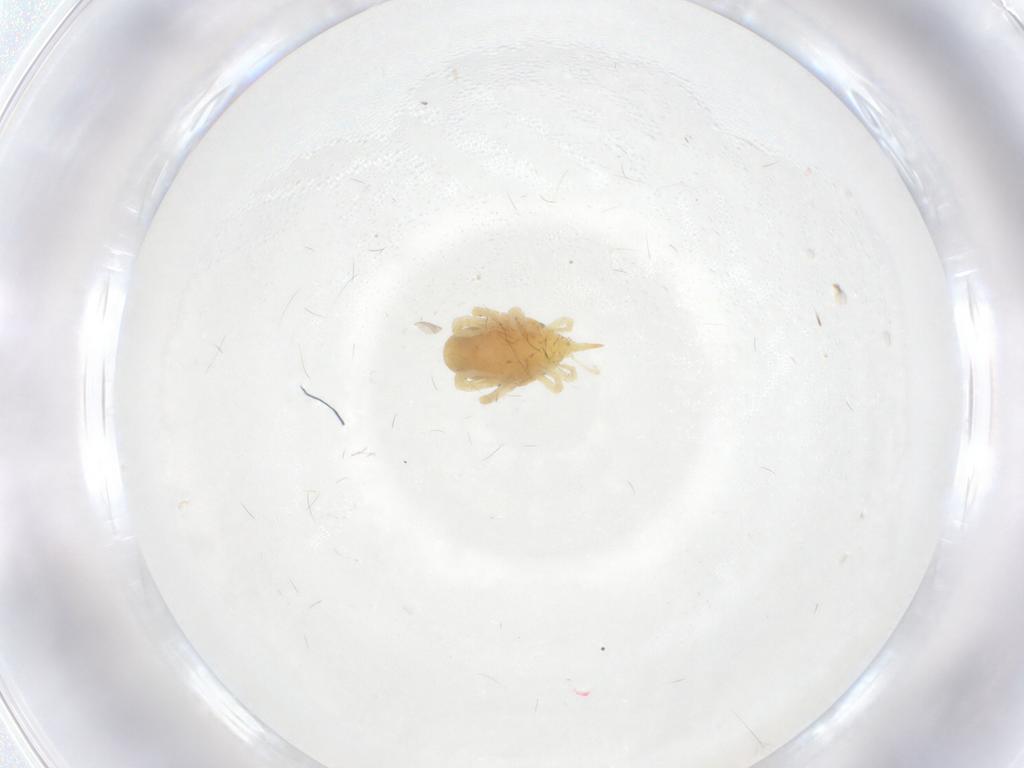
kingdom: Animalia
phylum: Arthropoda
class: Arachnida
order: Trombidiformes
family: Bdellidae
